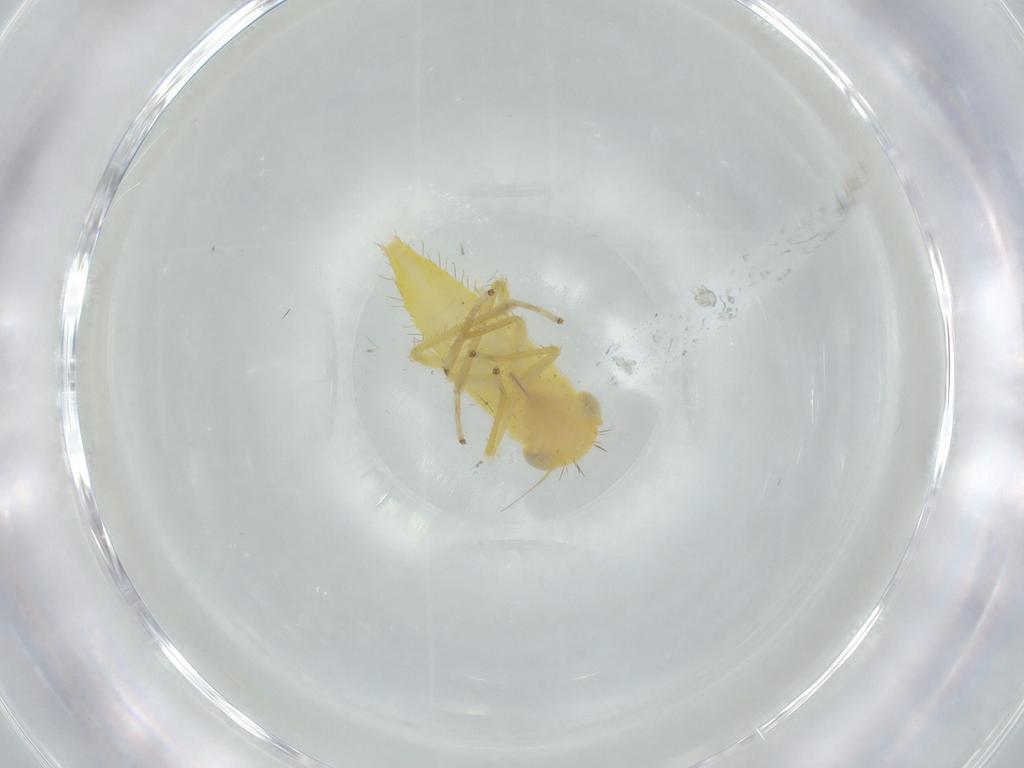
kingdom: Animalia
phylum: Arthropoda
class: Insecta
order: Hemiptera
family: Cicadellidae
